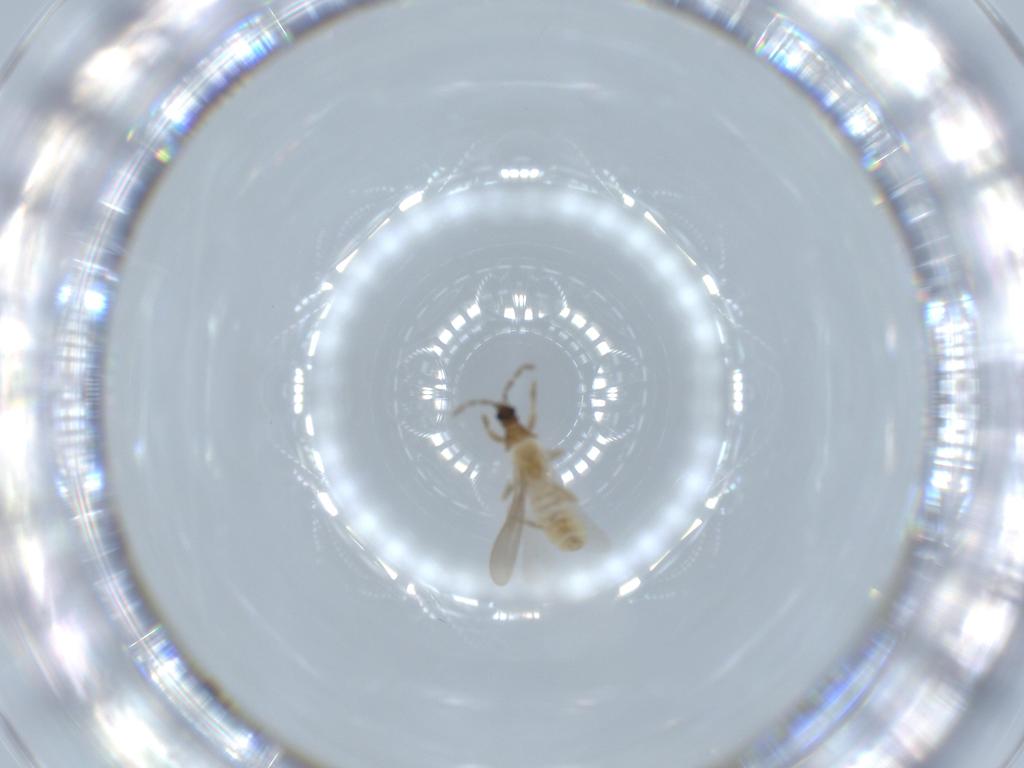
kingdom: Animalia
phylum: Arthropoda
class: Insecta
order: Hemiptera
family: Enicocephalidae
